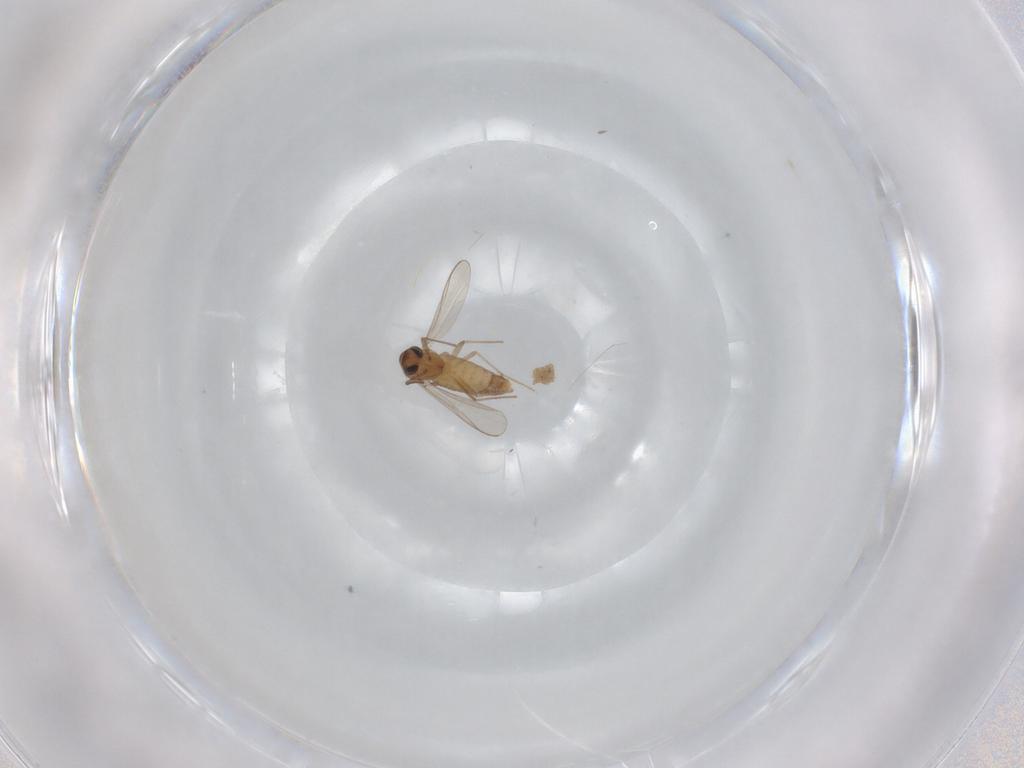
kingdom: Animalia
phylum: Arthropoda
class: Insecta
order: Diptera
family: Chironomidae
